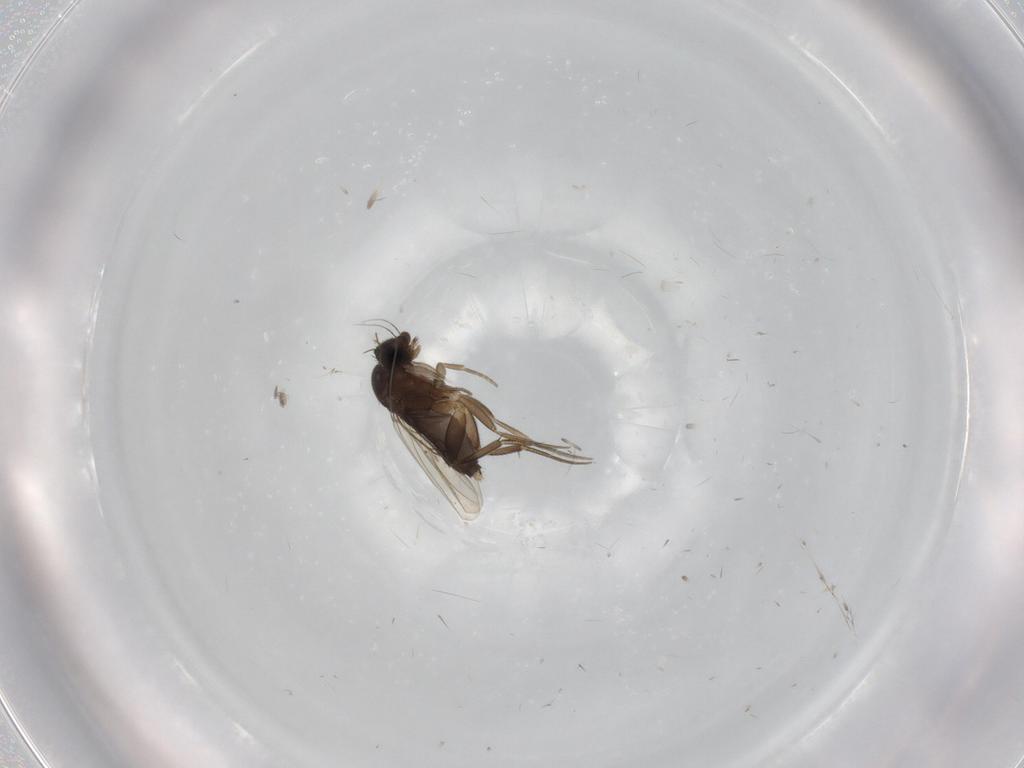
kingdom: Animalia
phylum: Arthropoda
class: Insecta
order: Diptera
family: Phoridae
